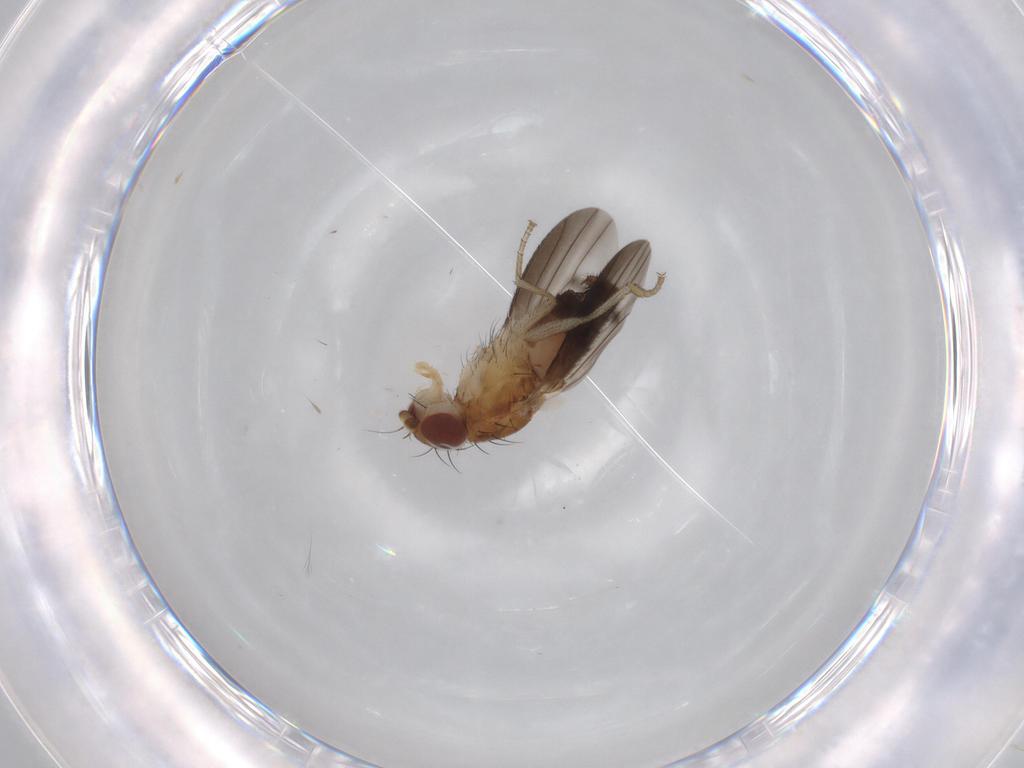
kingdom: Animalia
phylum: Arthropoda
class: Insecta
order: Diptera
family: Heleomyzidae
